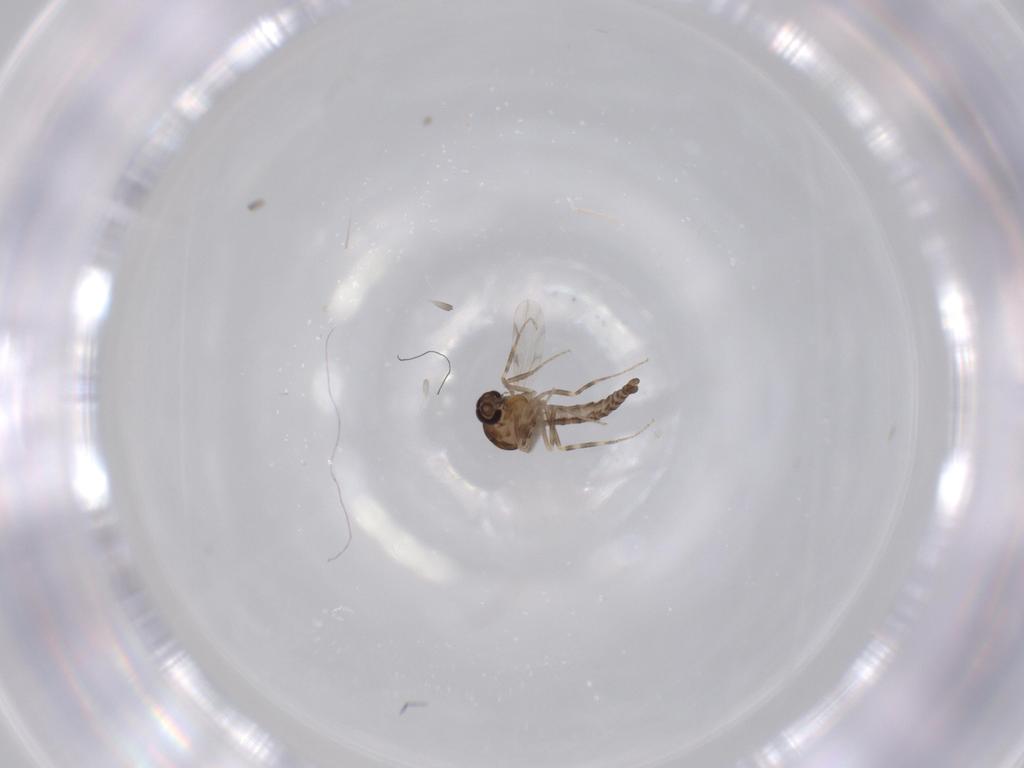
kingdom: Animalia
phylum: Arthropoda
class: Insecta
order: Diptera
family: Ceratopogonidae
